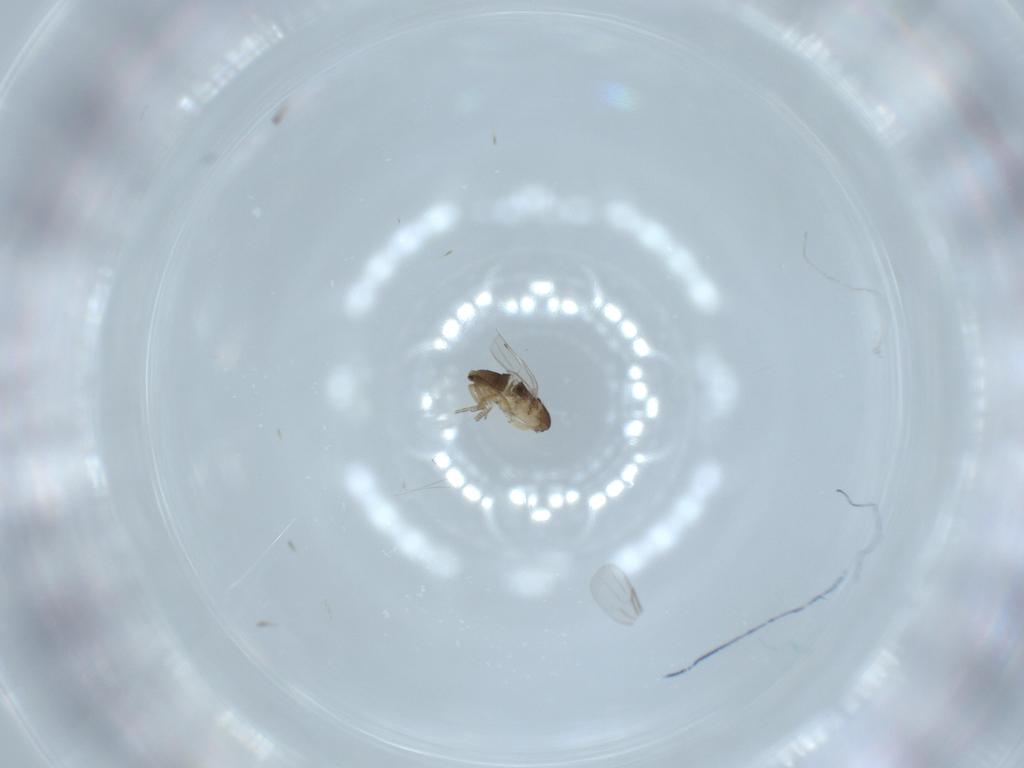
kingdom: Animalia
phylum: Arthropoda
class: Insecta
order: Diptera
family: Phoridae
